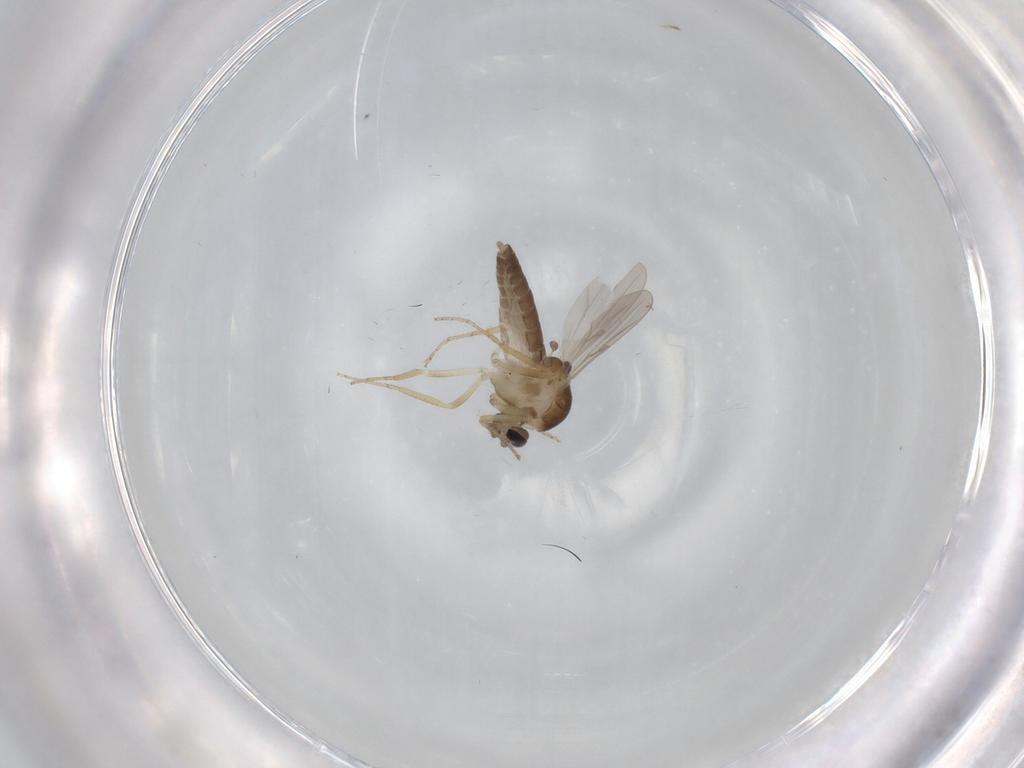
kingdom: Animalia
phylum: Arthropoda
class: Insecta
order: Diptera
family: Ceratopogonidae
